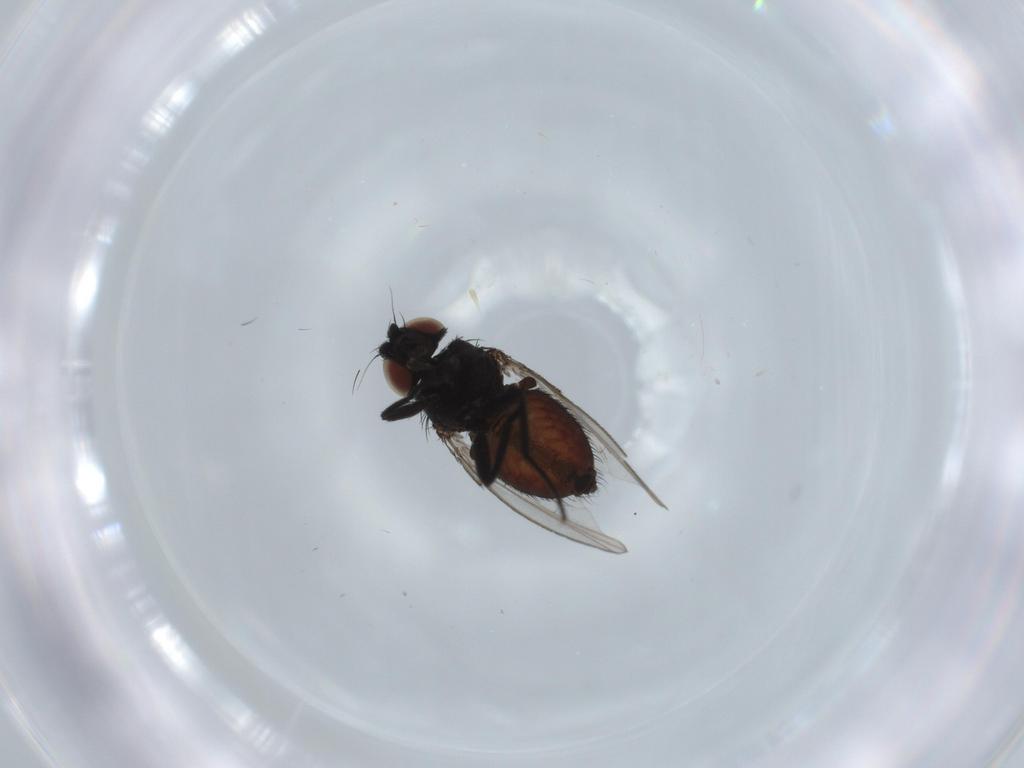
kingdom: Animalia
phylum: Arthropoda
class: Insecta
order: Diptera
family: Milichiidae
